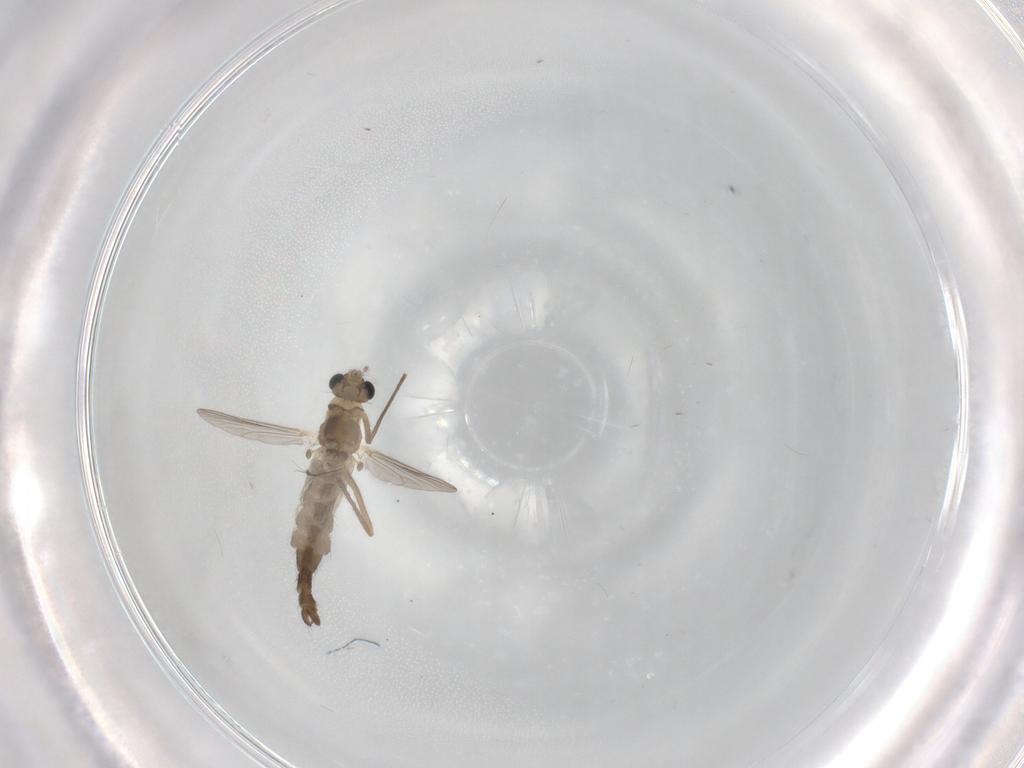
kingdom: Animalia
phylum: Arthropoda
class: Insecta
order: Diptera
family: Chironomidae
